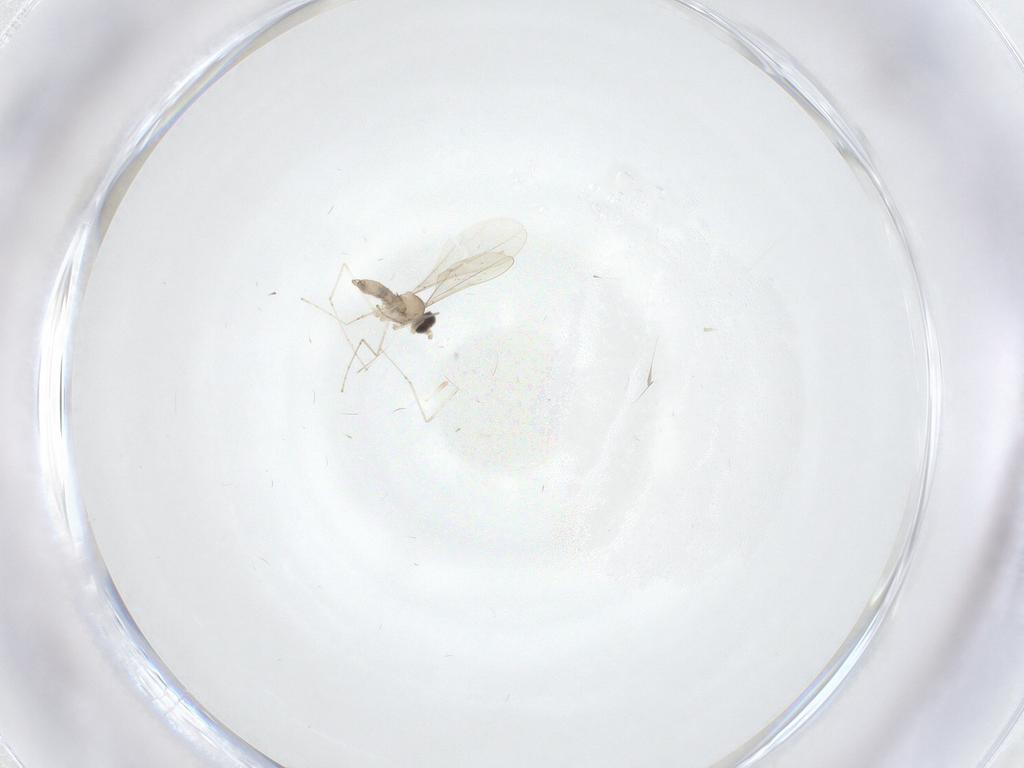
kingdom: Animalia
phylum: Arthropoda
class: Insecta
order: Diptera
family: Cecidomyiidae
